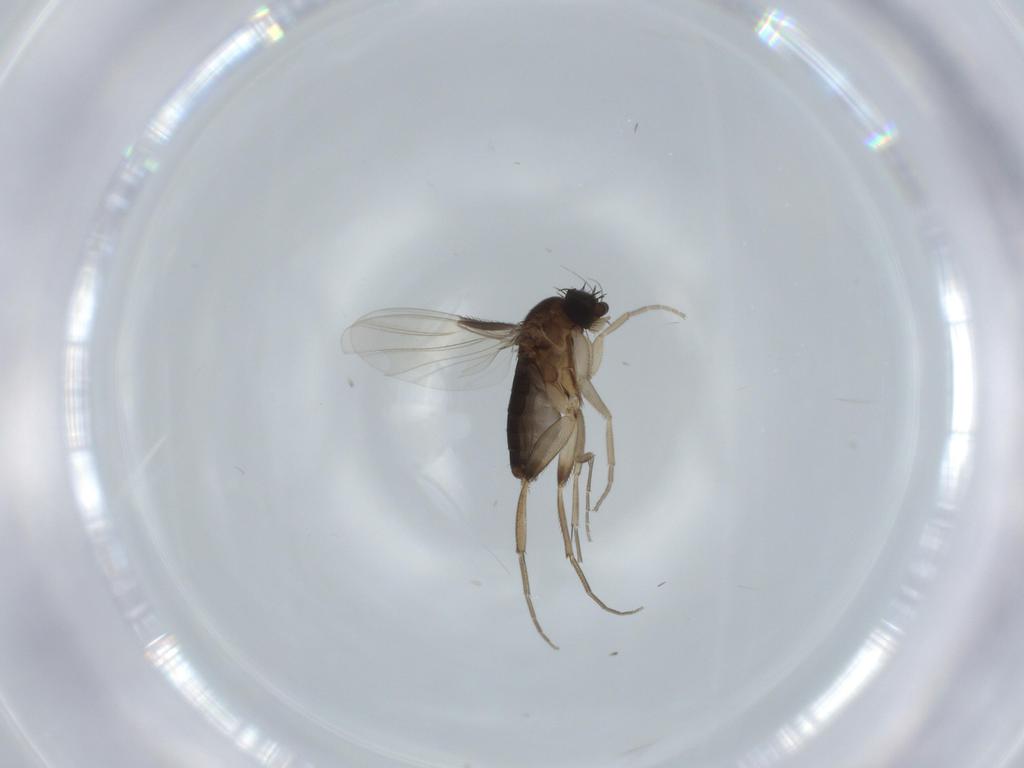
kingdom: Animalia
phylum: Arthropoda
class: Insecta
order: Diptera
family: Phoridae
